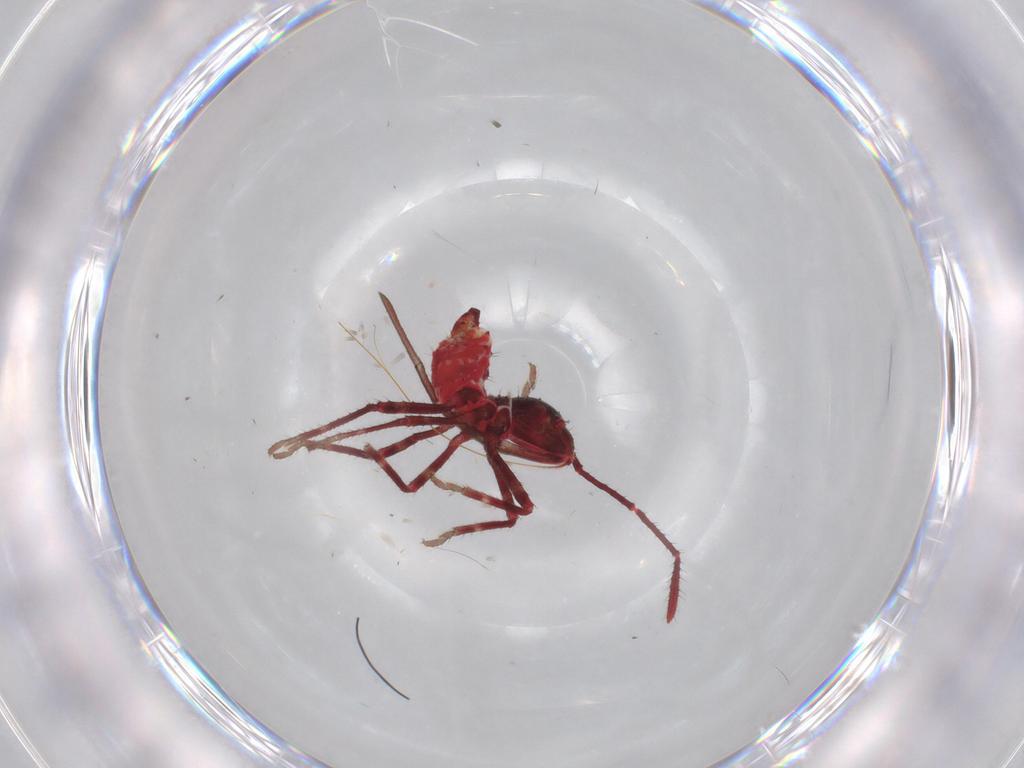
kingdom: Animalia
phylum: Arthropoda
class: Insecta
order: Hemiptera
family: Coreidae
